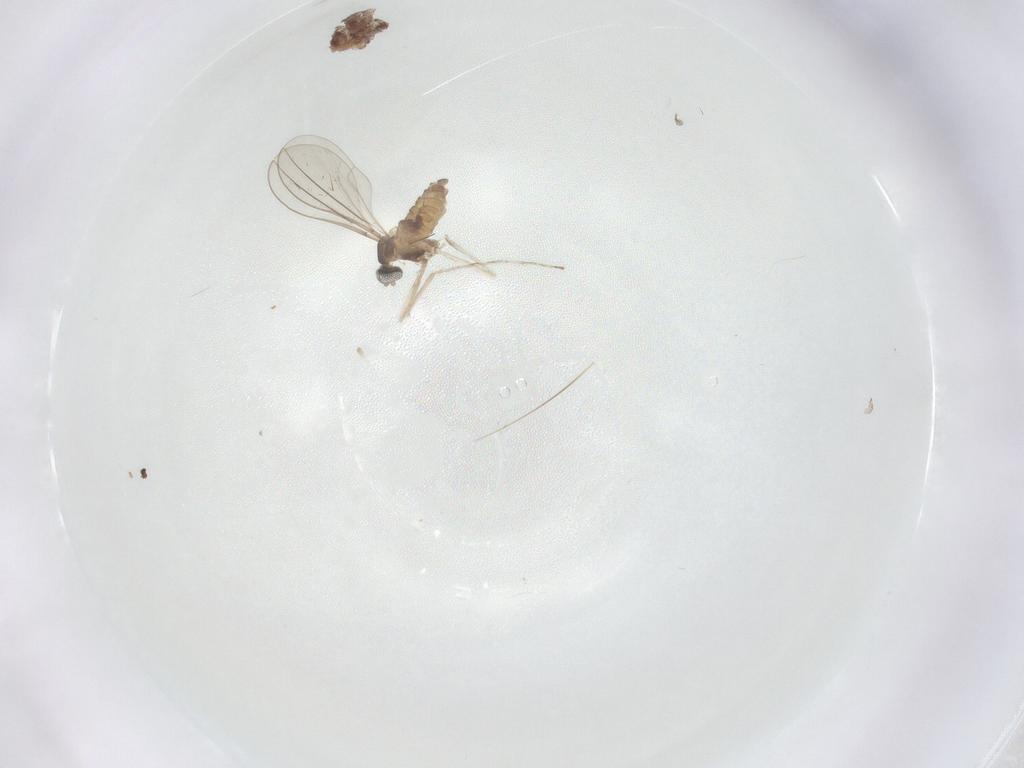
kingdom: Animalia
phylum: Arthropoda
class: Insecta
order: Diptera
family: Cecidomyiidae
